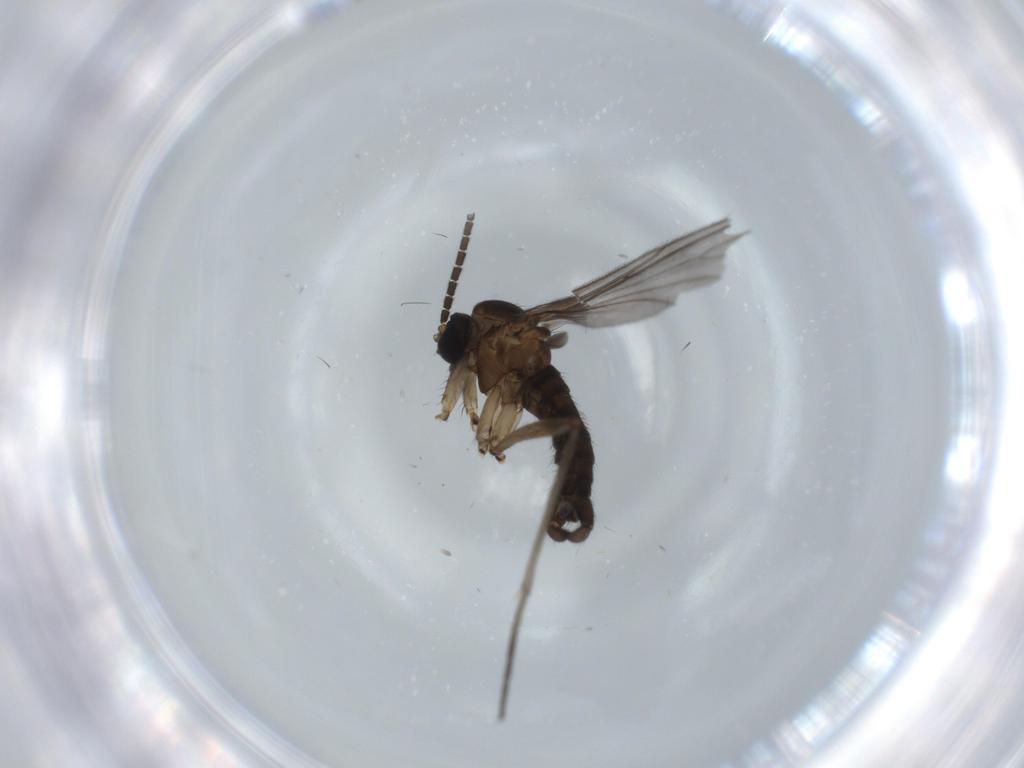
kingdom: Animalia
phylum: Arthropoda
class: Insecta
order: Diptera
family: Sciaridae
